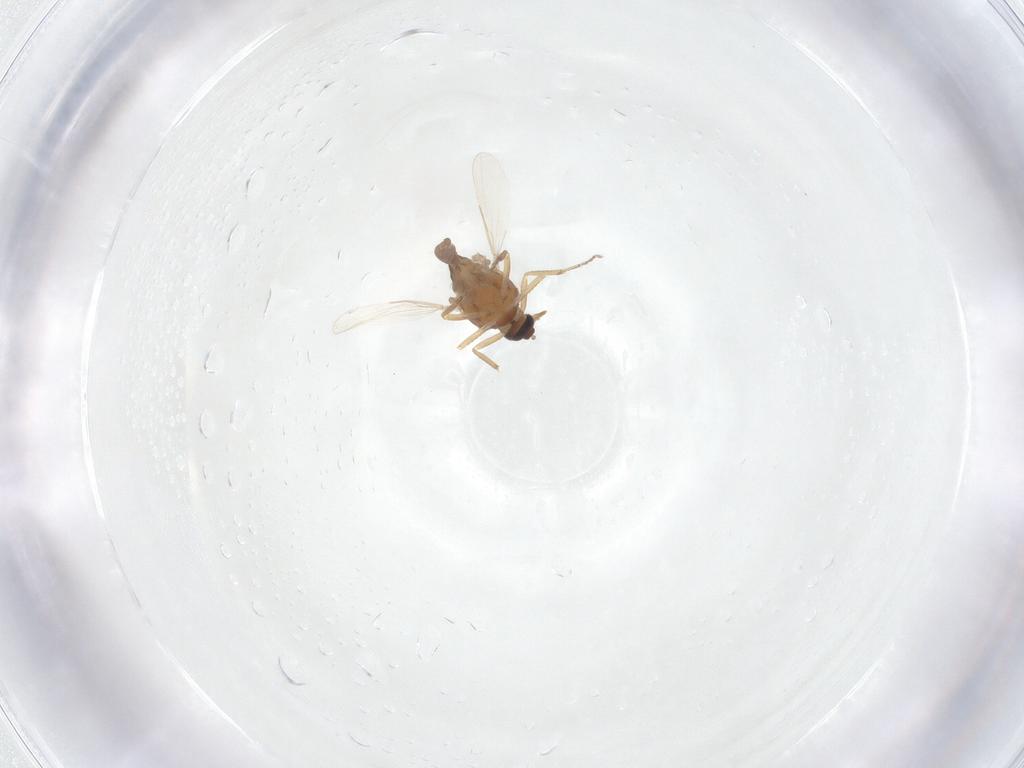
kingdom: Animalia
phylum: Arthropoda
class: Insecta
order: Diptera
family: Ceratopogonidae
